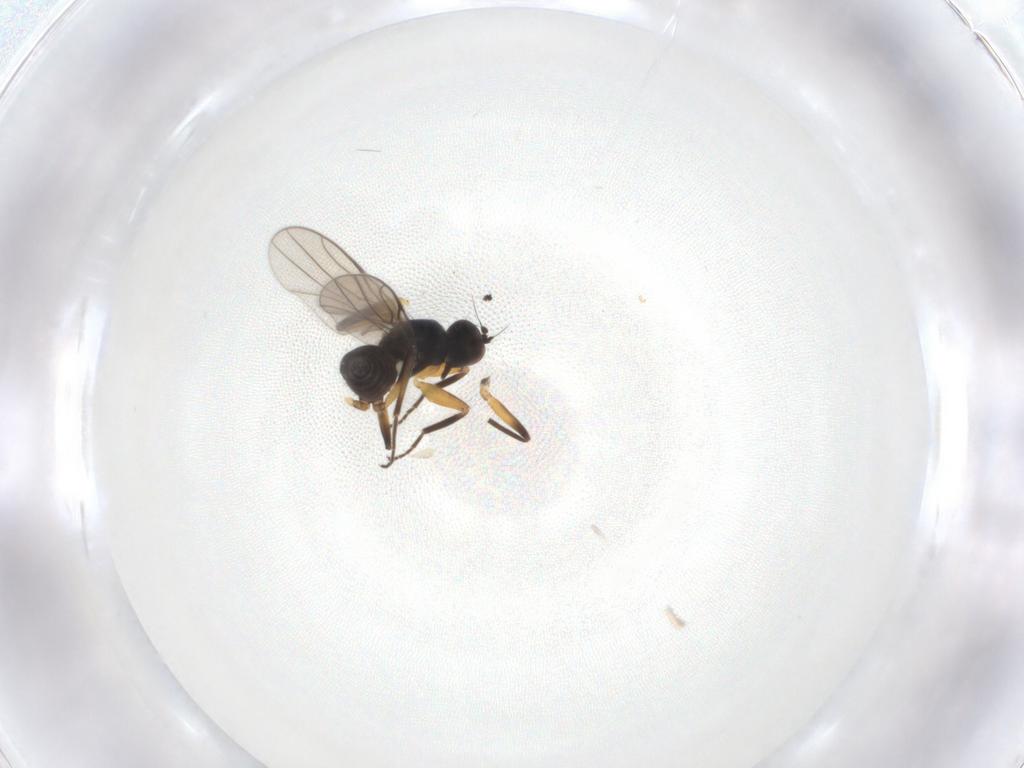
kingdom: Animalia
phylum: Arthropoda
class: Insecta
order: Diptera
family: Hybotidae
